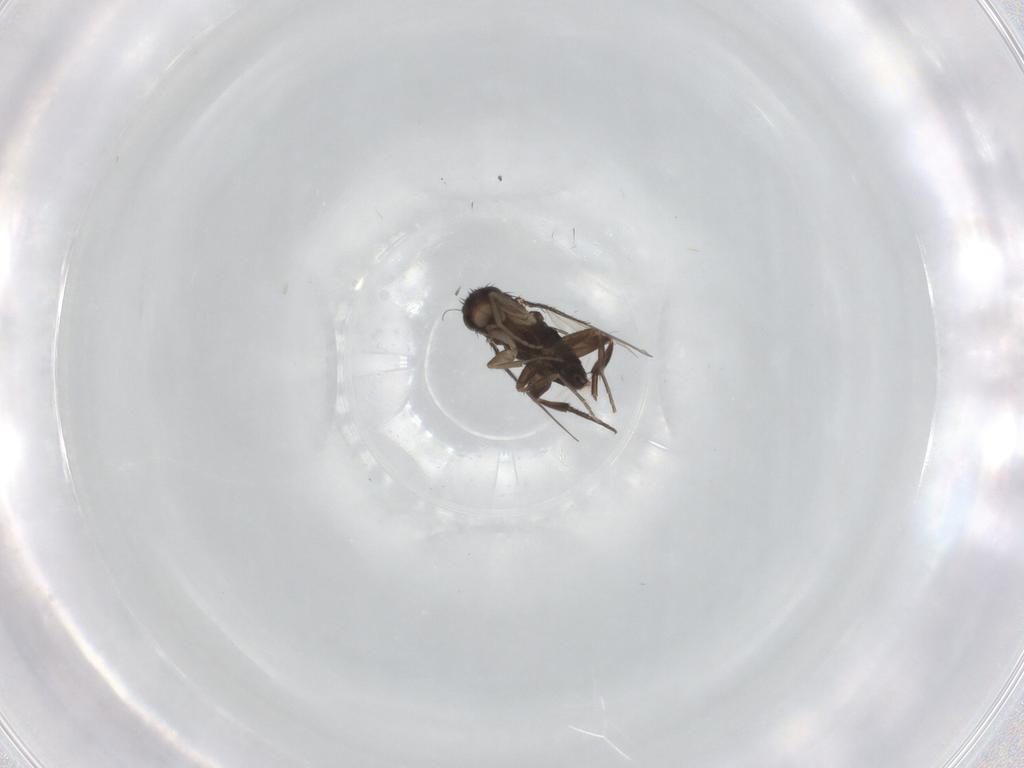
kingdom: Animalia
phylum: Arthropoda
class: Insecta
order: Diptera
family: Phoridae
